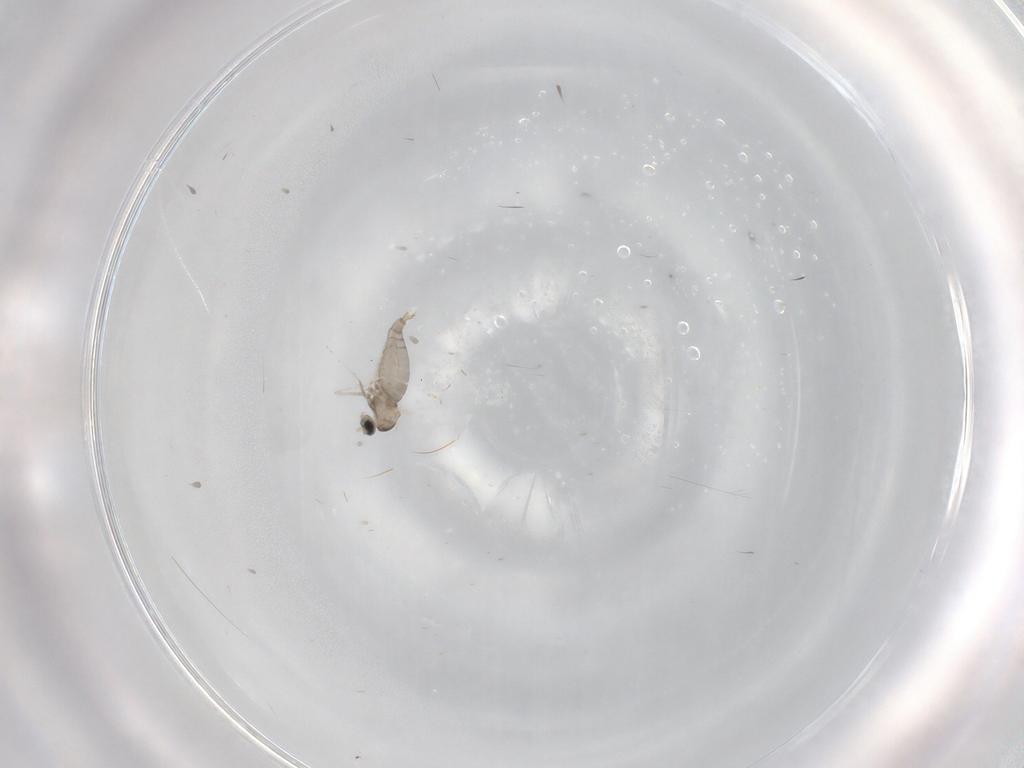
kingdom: Animalia
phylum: Arthropoda
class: Insecta
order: Diptera
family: Cecidomyiidae
